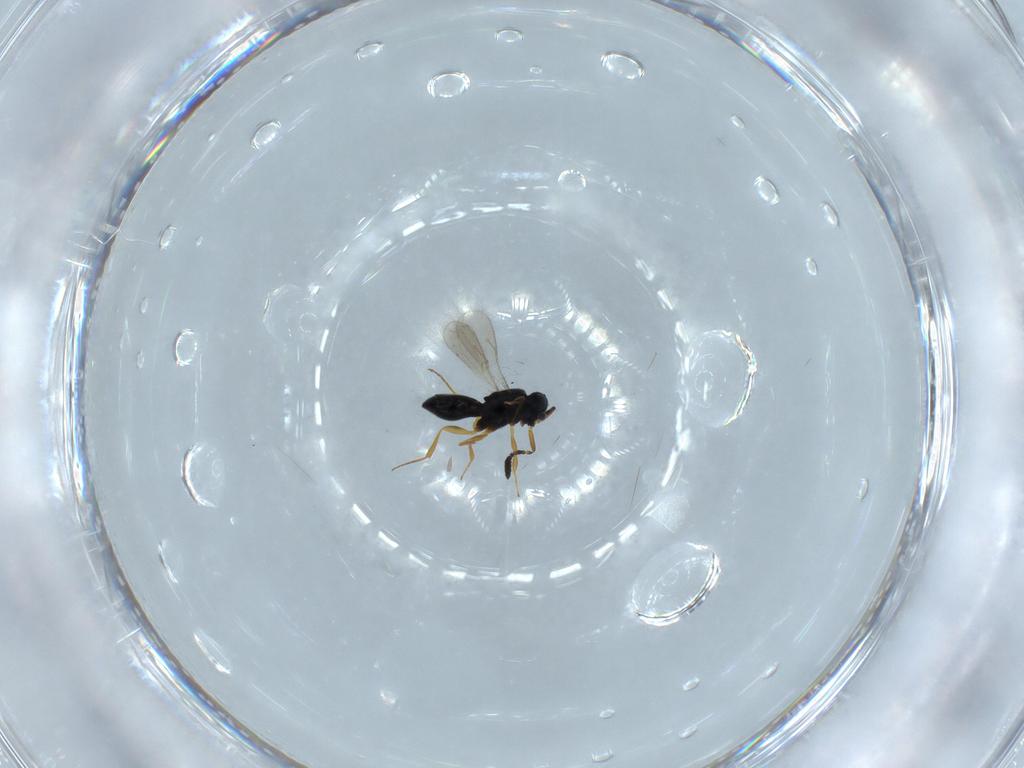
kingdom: Animalia
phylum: Arthropoda
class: Insecta
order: Hymenoptera
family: Scelionidae
